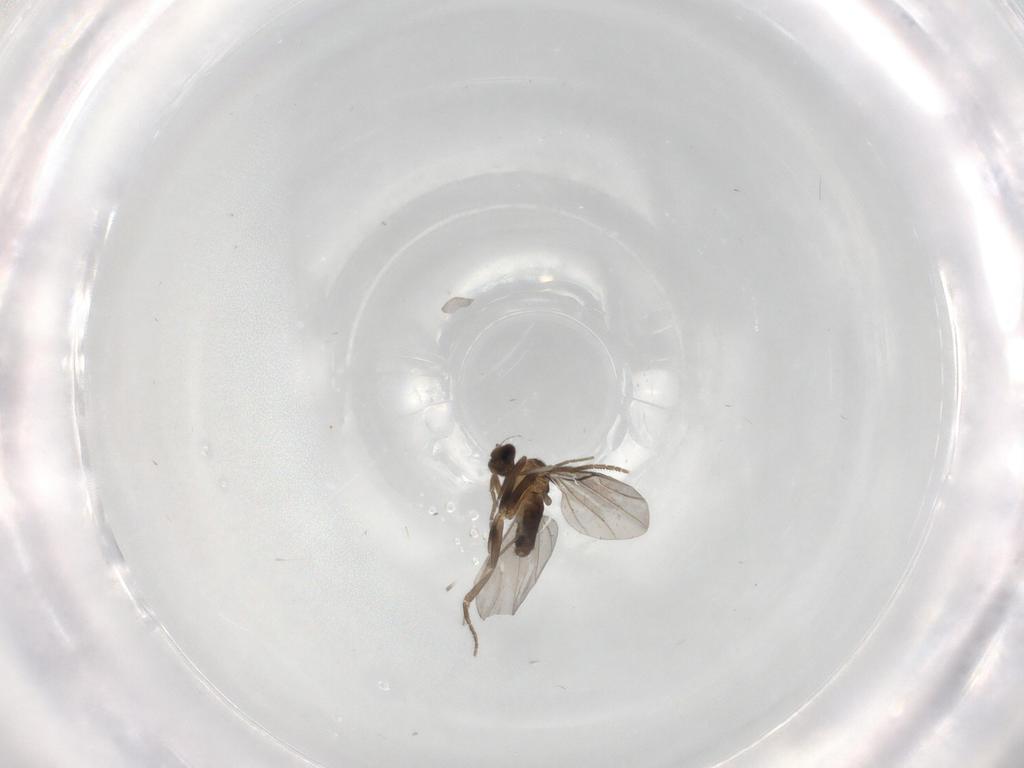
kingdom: Animalia
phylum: Arthropoda
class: Insecta
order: Diptera
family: Phoridae
